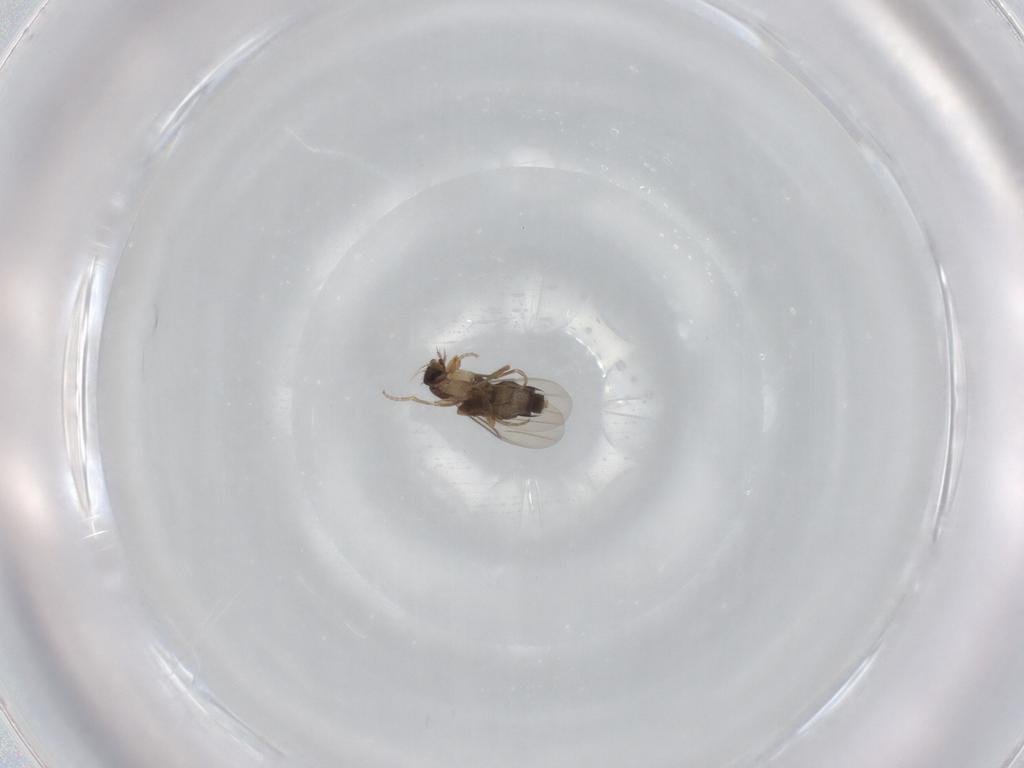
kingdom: Animalia
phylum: Arthropoda
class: Insecta
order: Diptera
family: Phoridae
